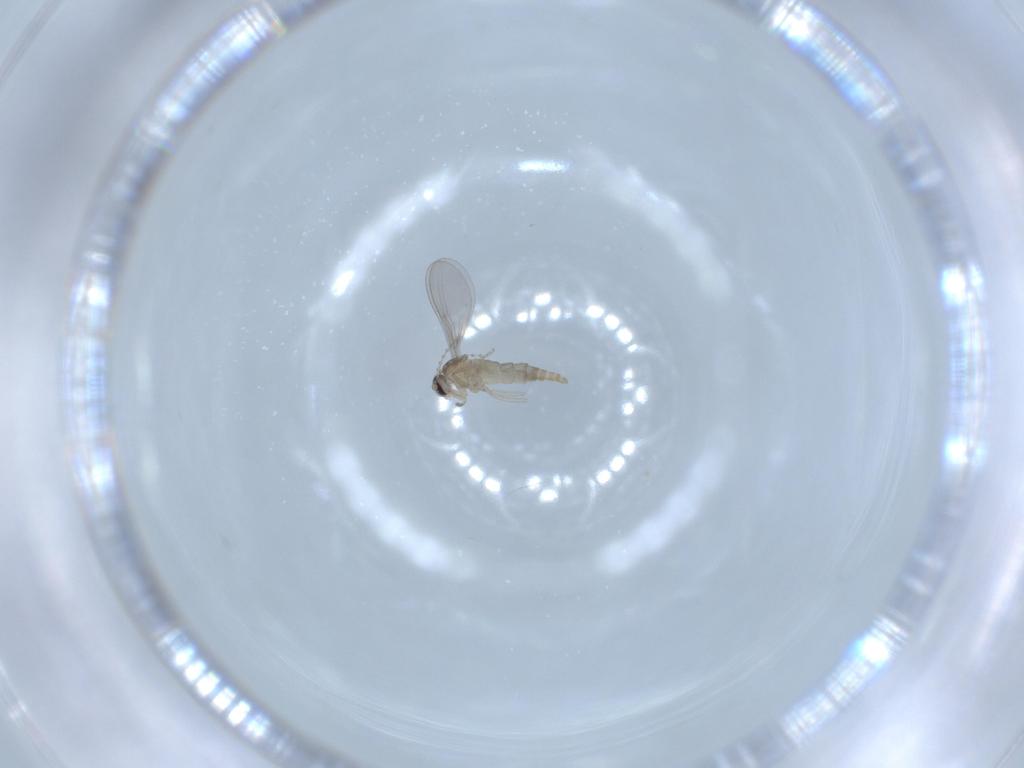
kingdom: Animalia
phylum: Arthropoda
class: Insecta
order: Diptera
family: Cecidomyiidae
